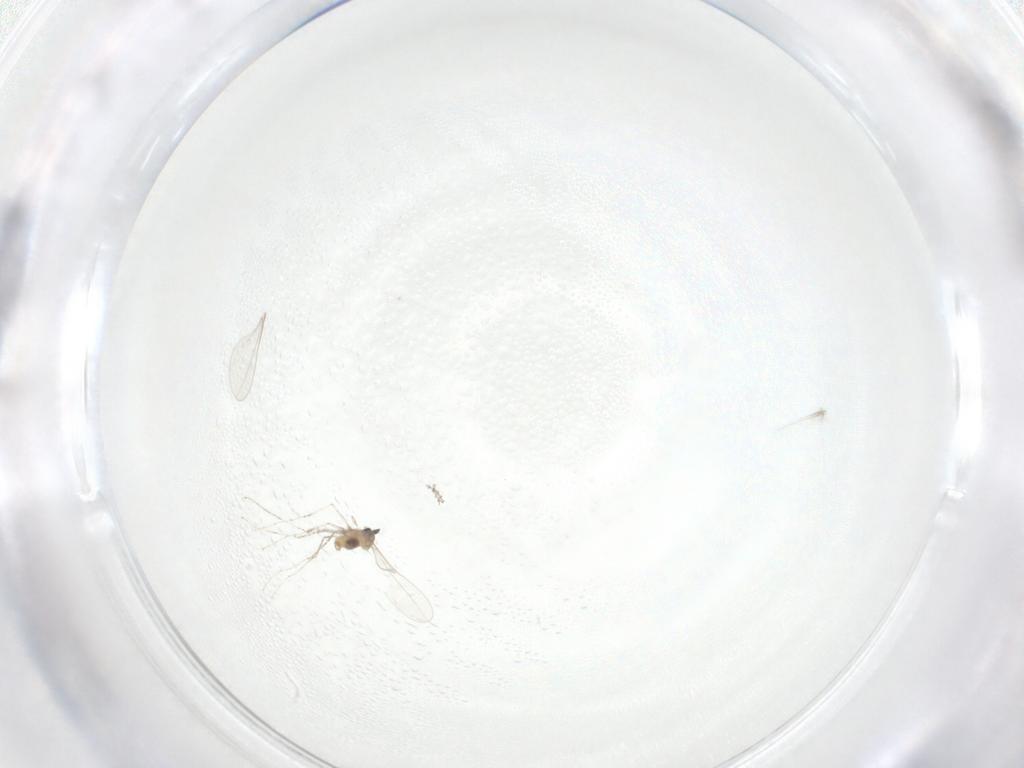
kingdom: Animalia
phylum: Arthropoda
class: Insecta
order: Diptera
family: Cecidomyiidae
